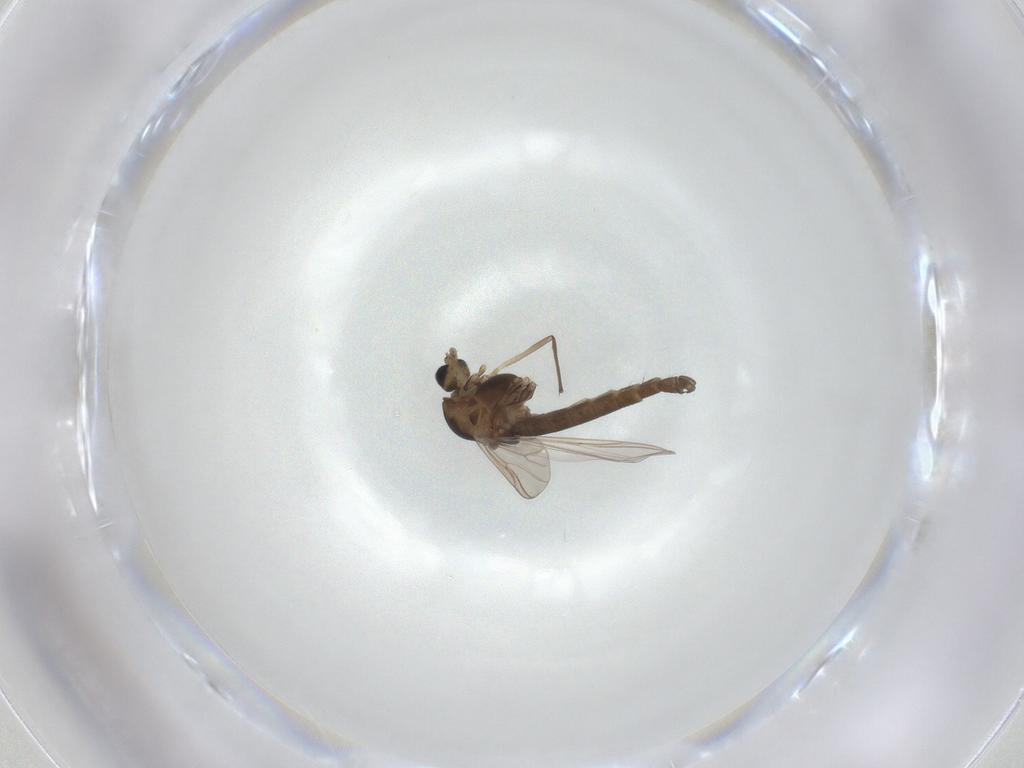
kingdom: Animalia
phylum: Arthropoda
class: Insecta
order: Diptera
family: Chironomidae
